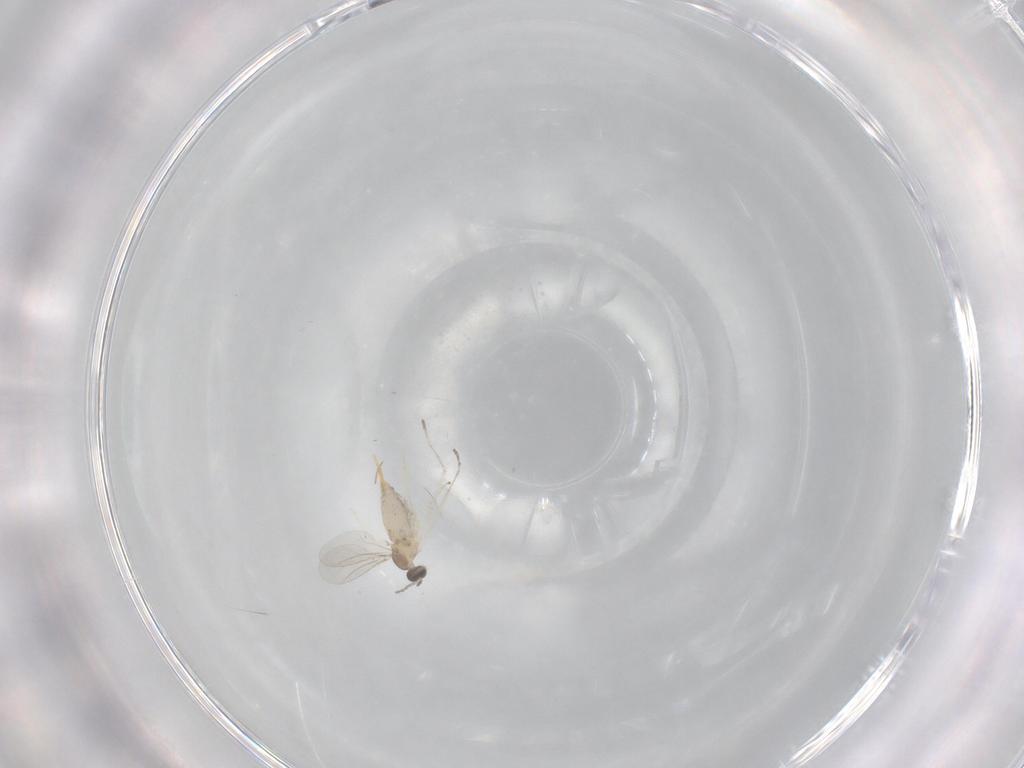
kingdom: Animalia
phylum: Arthropoda
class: Insecta
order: Diptera
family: Cecidomyiidae
